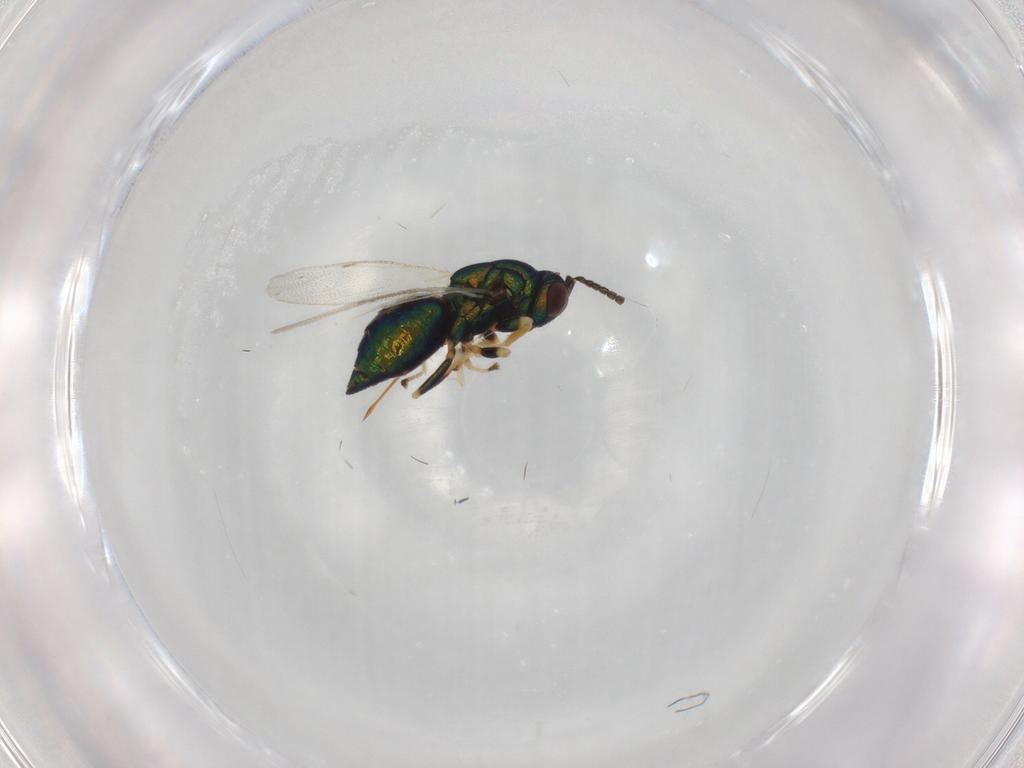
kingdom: Animalia
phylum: Arthropoda
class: Insecta
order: Hymenoptera
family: Pteromalidae
